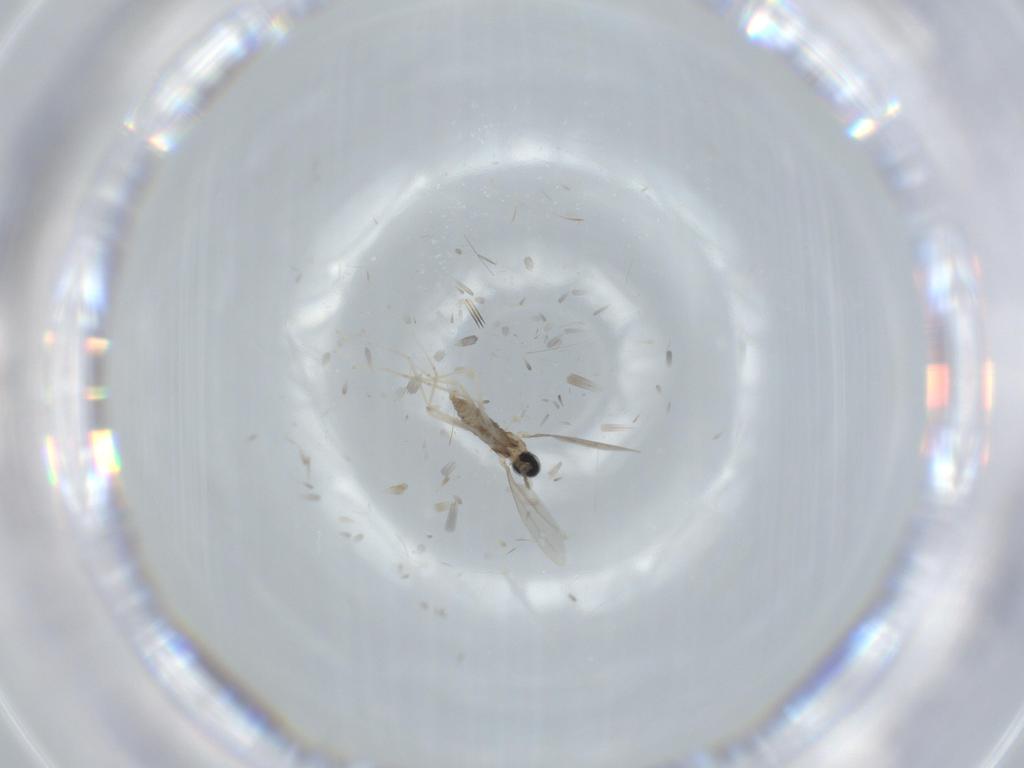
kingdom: Animalia
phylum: Arthropoda
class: Insecta
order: Diptera
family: Cecidomyiidae
